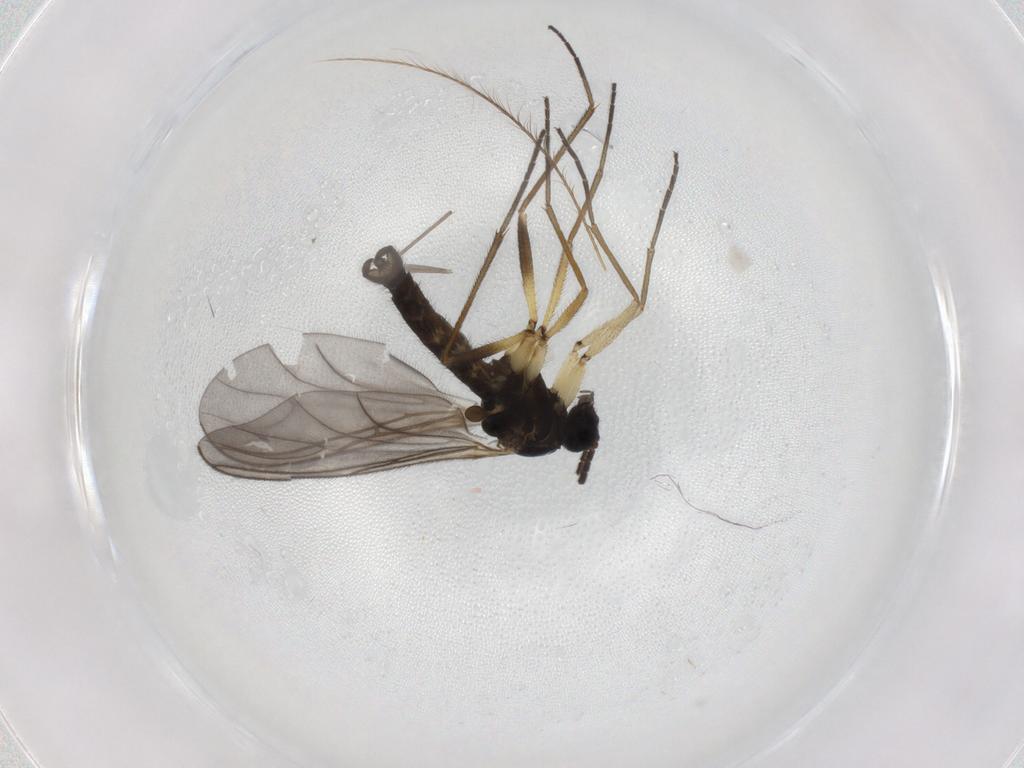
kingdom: Animalia
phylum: Arthropoda
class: Insecta
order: Diptera
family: Sciaridae
